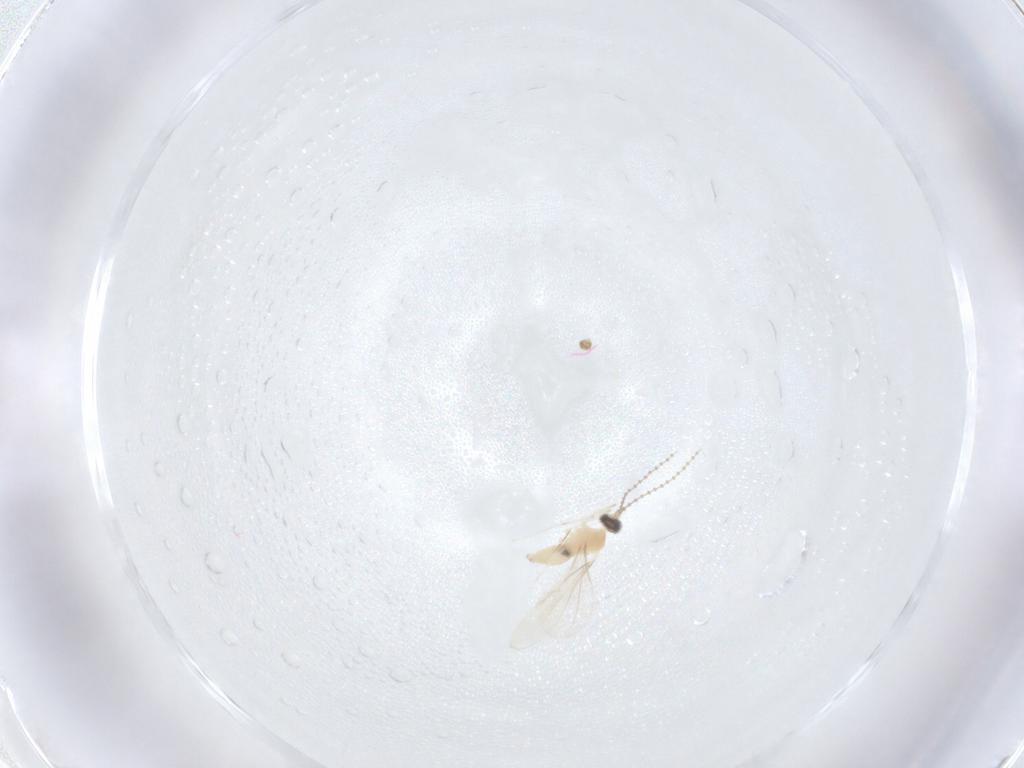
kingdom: Animalia
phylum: Arthropoda
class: Insecta
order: Diptera
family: Cecidomyiidae
